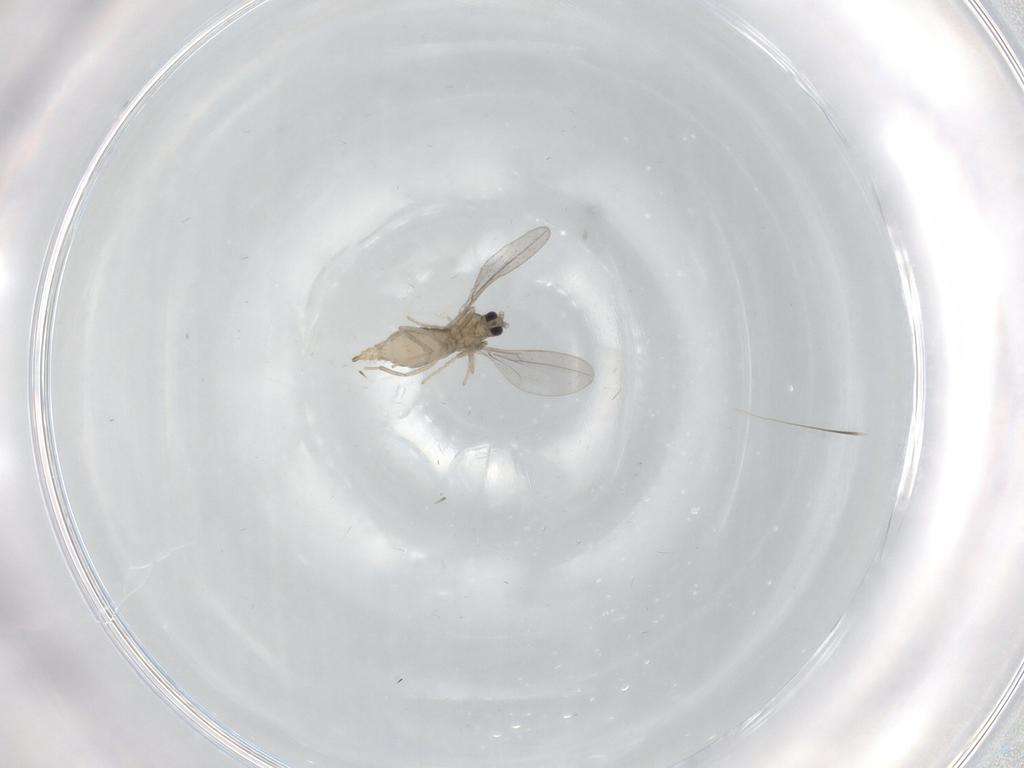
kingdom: Animalia
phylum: Arthropoda
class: Insecta
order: Diptera
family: Cecidomyiidae
